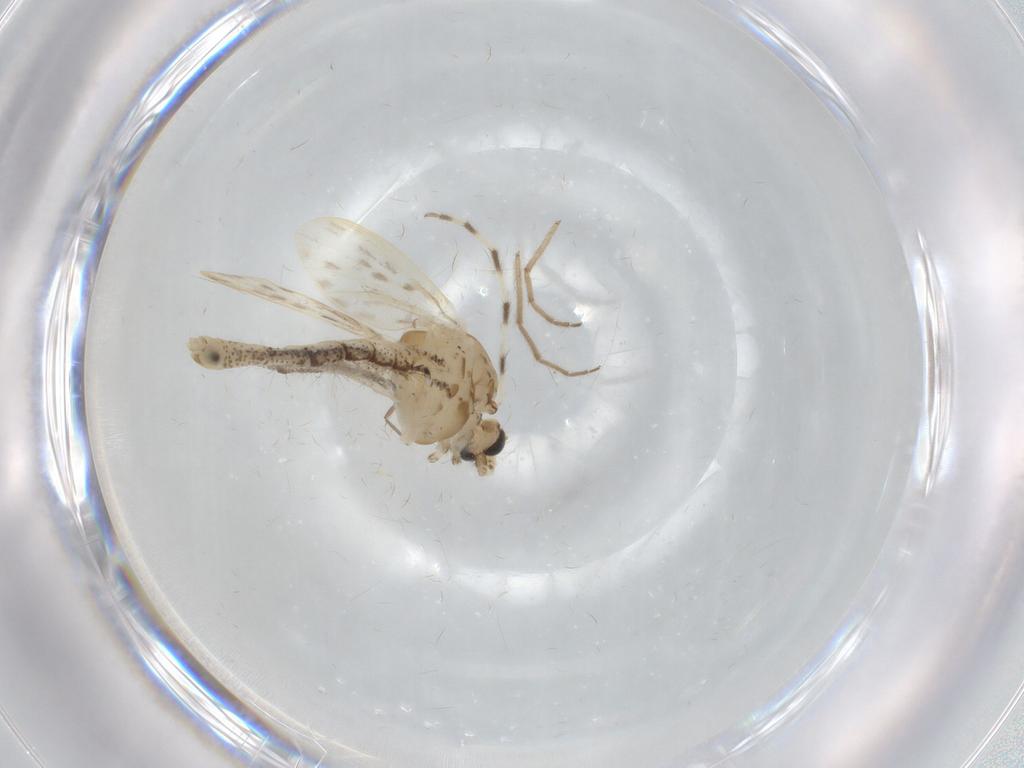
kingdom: Animalia
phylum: Arthropoda
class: Insecta
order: Diptera
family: Chaoboridae
